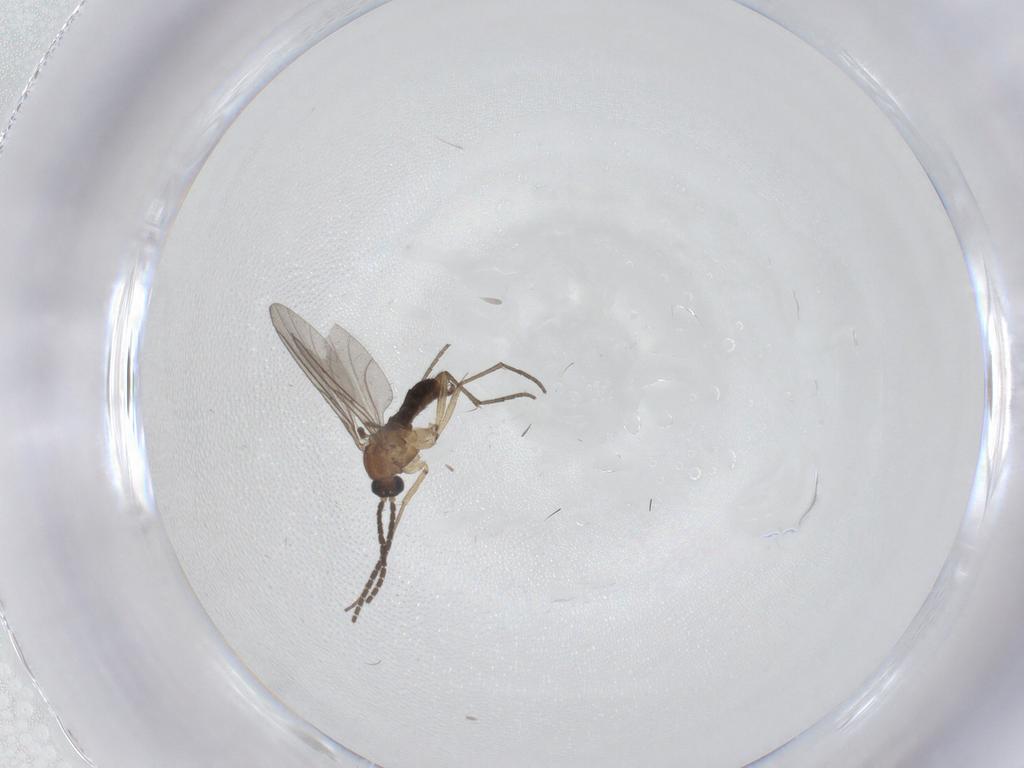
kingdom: Animalia
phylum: Arthropoda
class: Insecta
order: Diptera
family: Sciaridae
